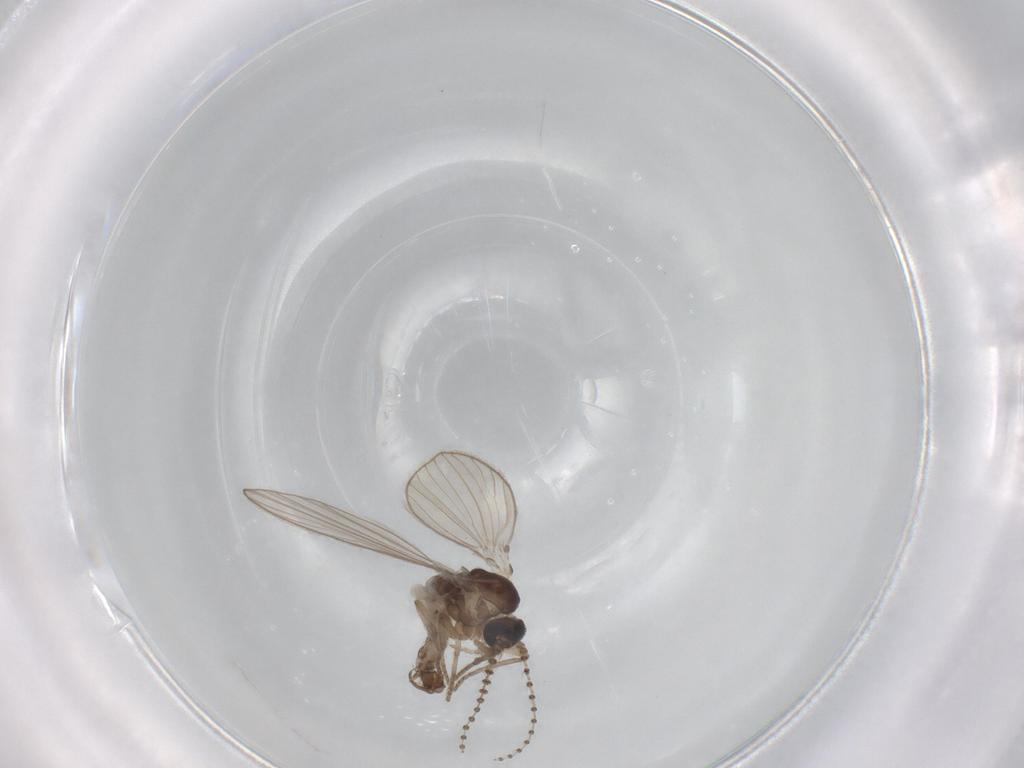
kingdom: Animalia
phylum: Arthropoda
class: Insecta
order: Diptera
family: Psychodidae
